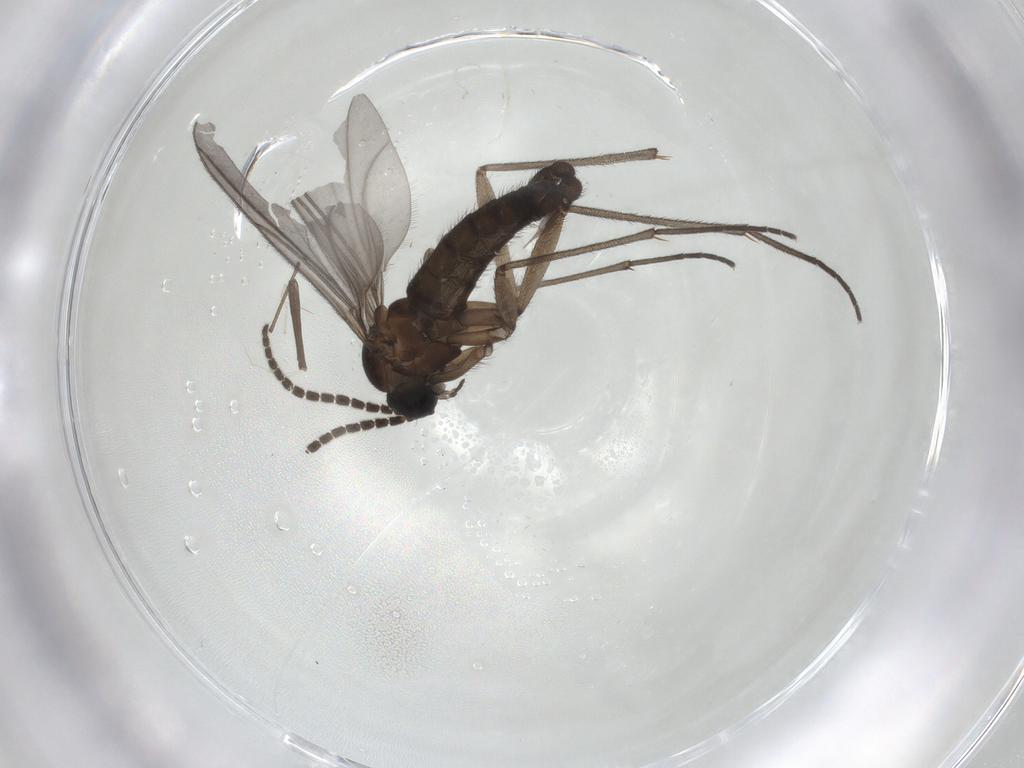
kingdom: Animalia
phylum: Arthropoda
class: Insecta
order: Diptera
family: Sciaridae
